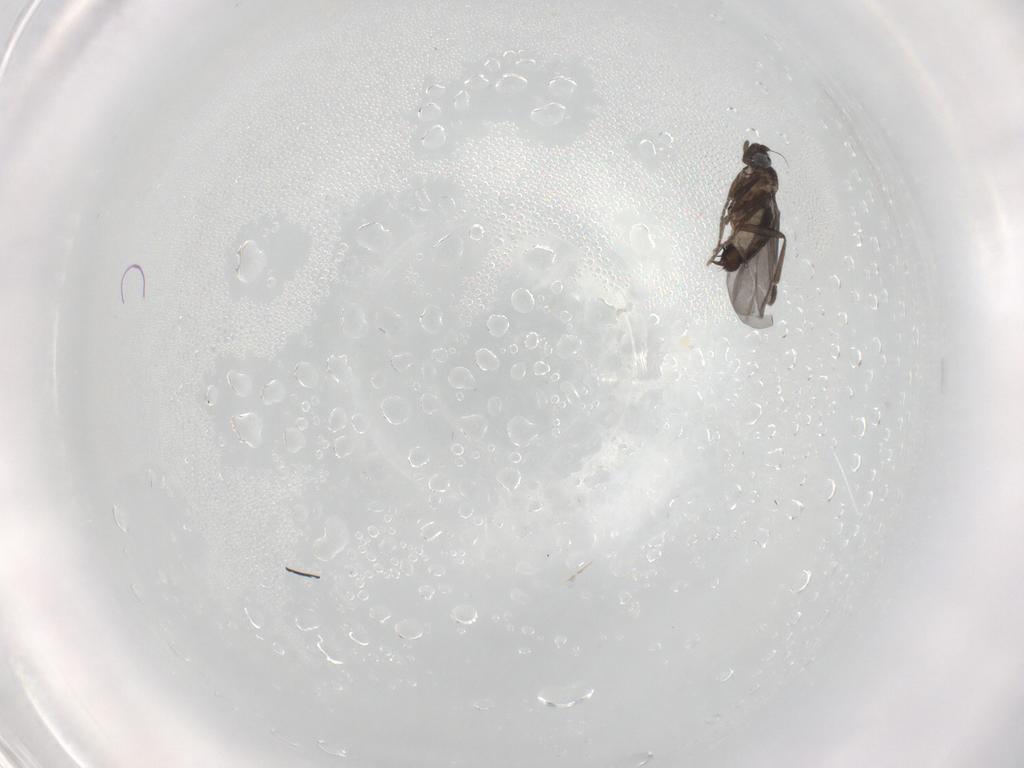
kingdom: Animalia
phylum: Arthropoda
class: Insecta
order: Diptera
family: Phoridae
